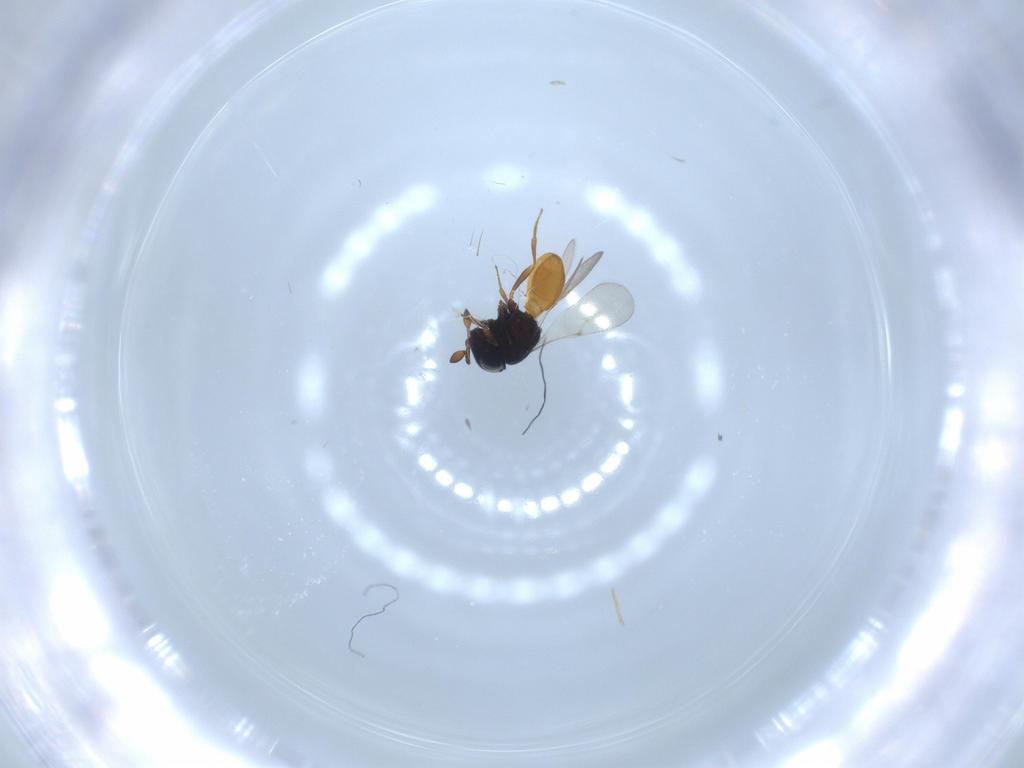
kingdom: Animalia
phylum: Arthropoda
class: Insecta
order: Hymenoptera
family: Scelionidae
